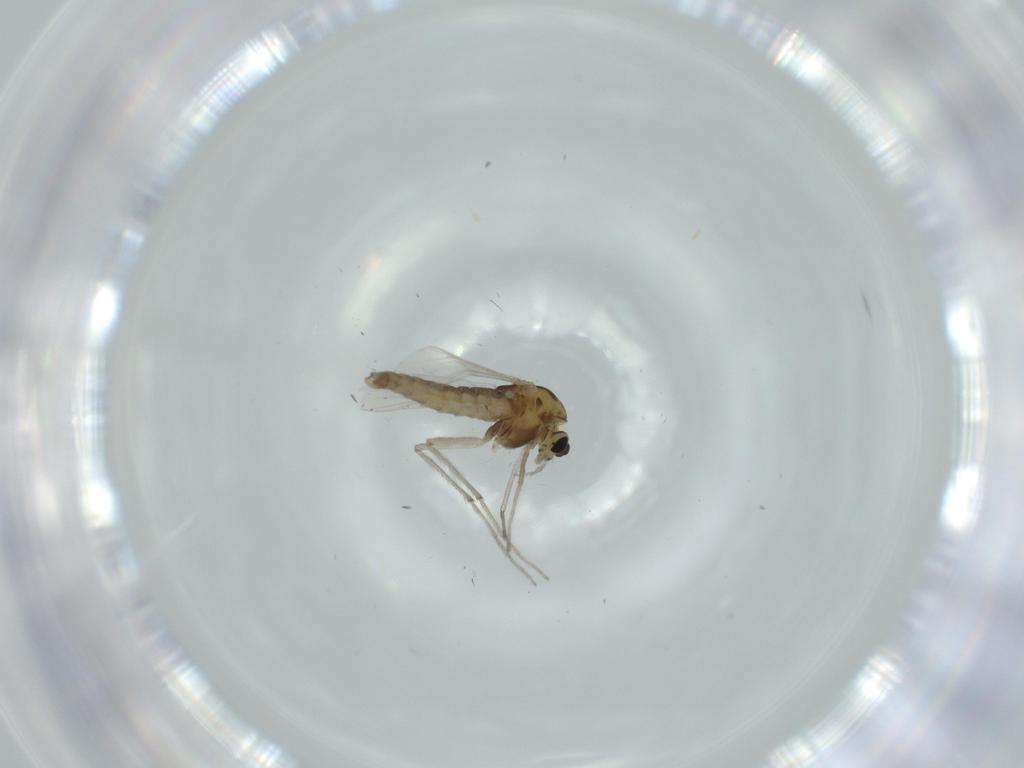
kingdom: Animalia
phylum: Arthropoda
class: Insecta
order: Diptera
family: Chironomidae
